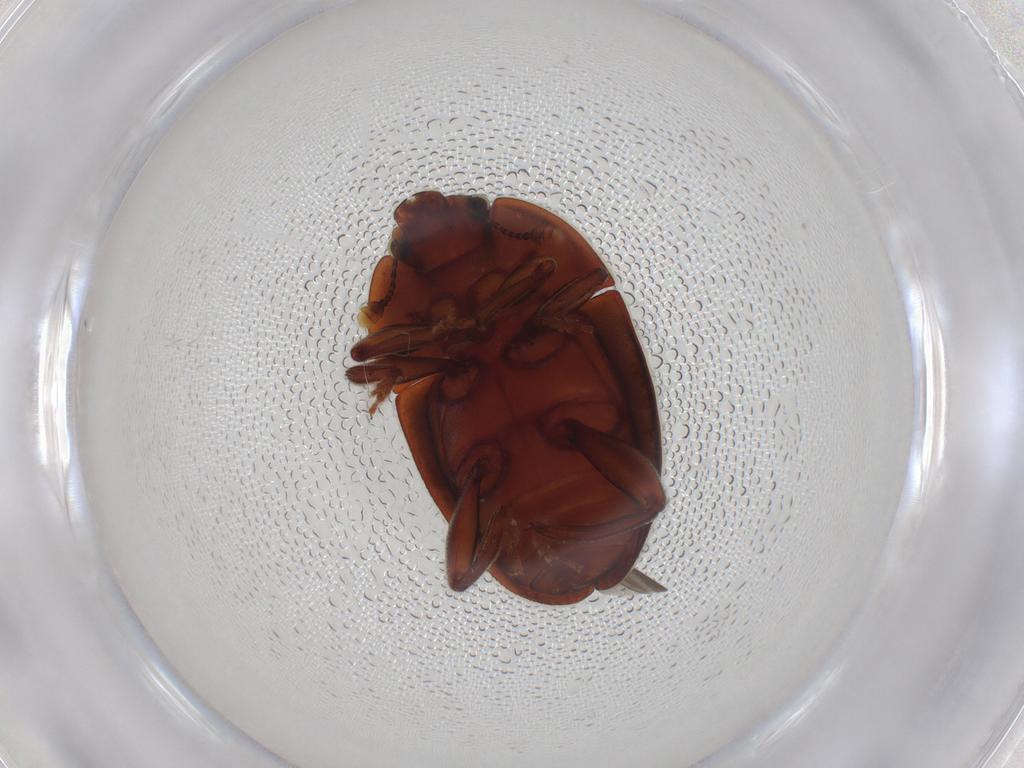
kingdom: Animalia
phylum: Arthropoda
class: Insecta
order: Coleoptera
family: Nitidulidae
